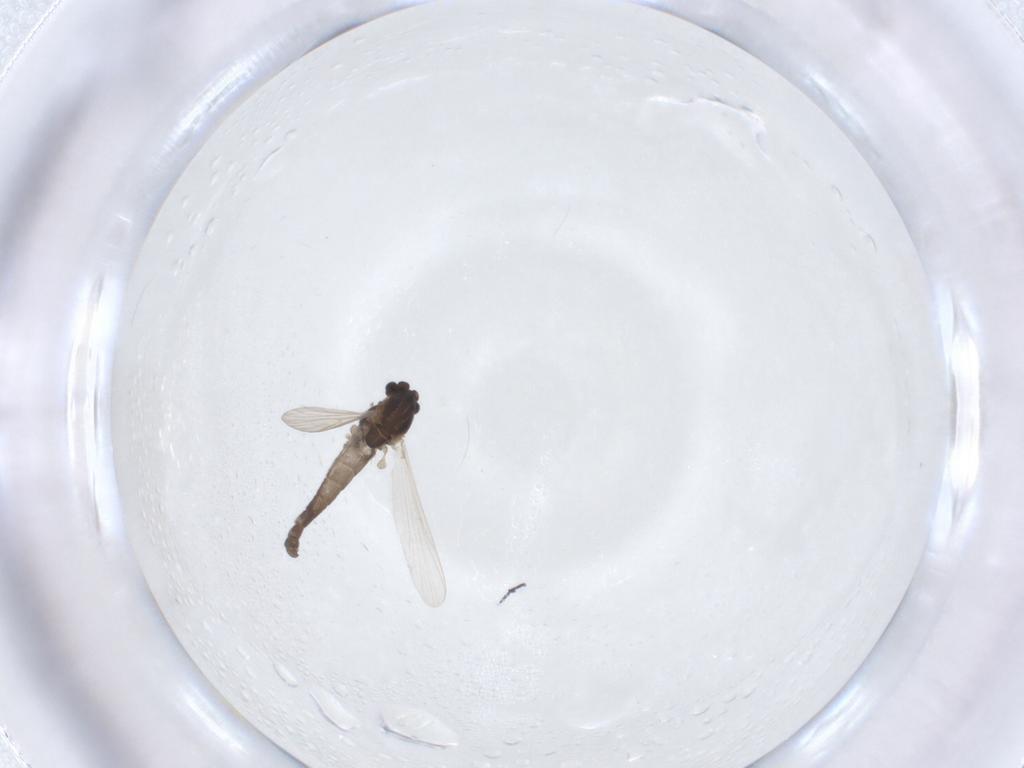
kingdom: Animalia
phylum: Arthropoda
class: Insecta
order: Diptera
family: Chironomidae
